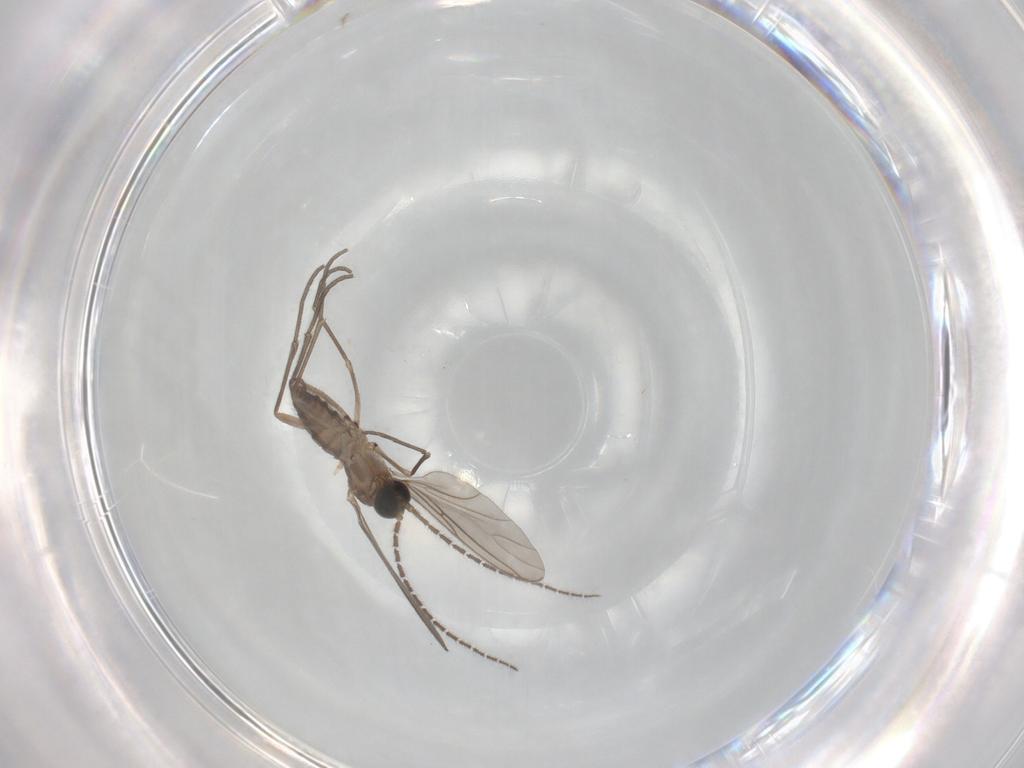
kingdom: Animalia
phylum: Arthropoda
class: Insecta
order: Diptera
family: Sciaridae
